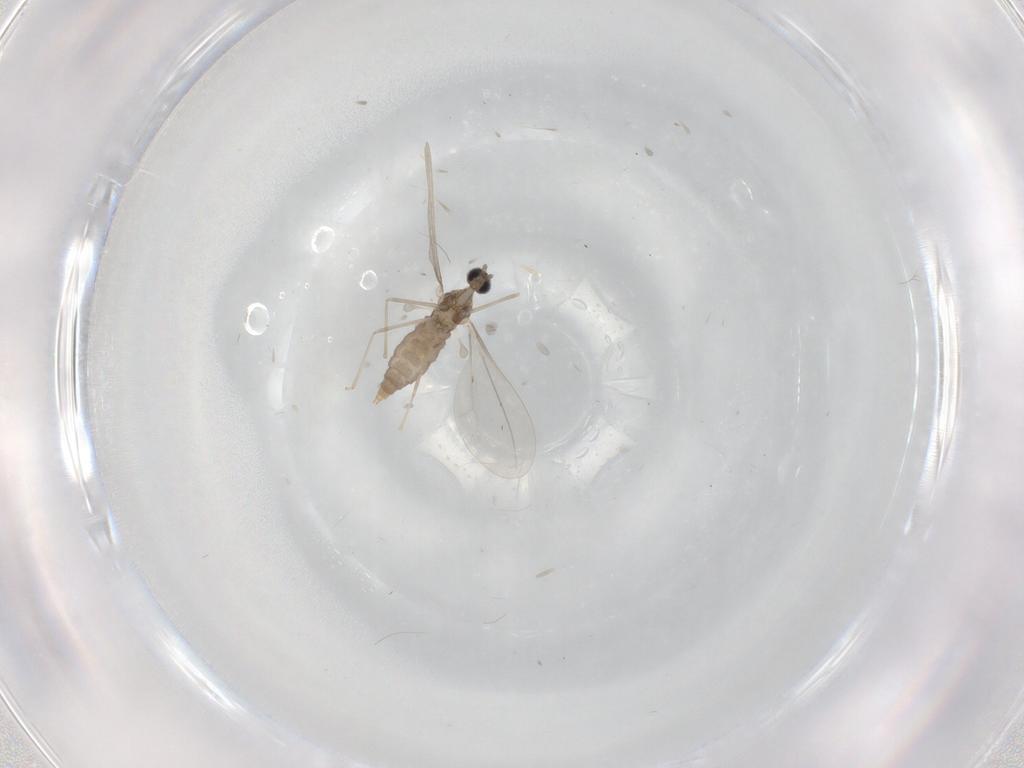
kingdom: Animalia
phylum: Arthropoda
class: Insecta
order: Diptera
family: Cecidomyiidae
